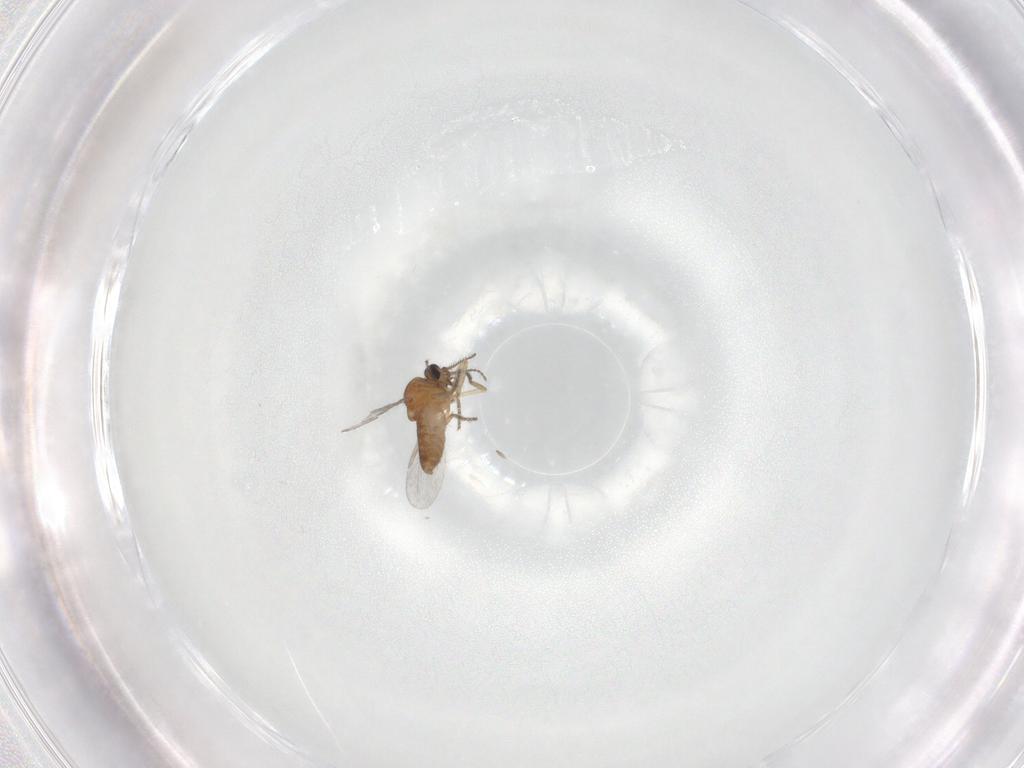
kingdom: Animalia
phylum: Arthropoda
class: Insecta
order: Diptera
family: Ceratopogonidae
